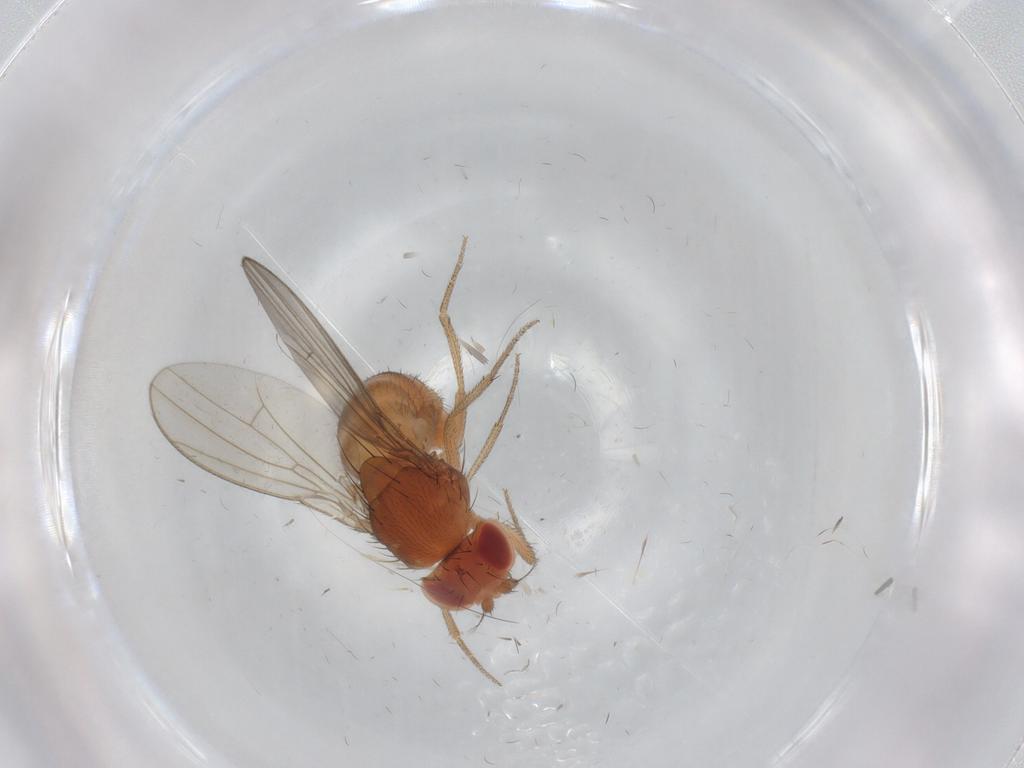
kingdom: Animalia
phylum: Arthropoda
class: Insecta
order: Diptera
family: Drosophilidae
